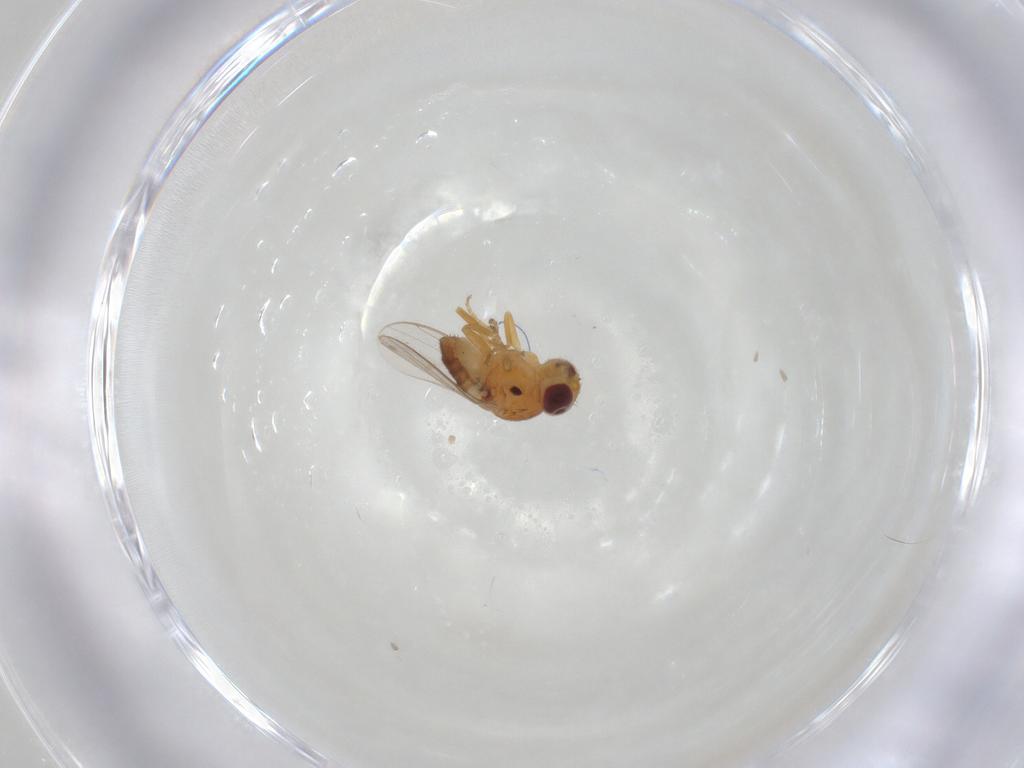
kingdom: Animalia
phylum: Arthropoda
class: Insecta
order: Diptera
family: Chloropidae
